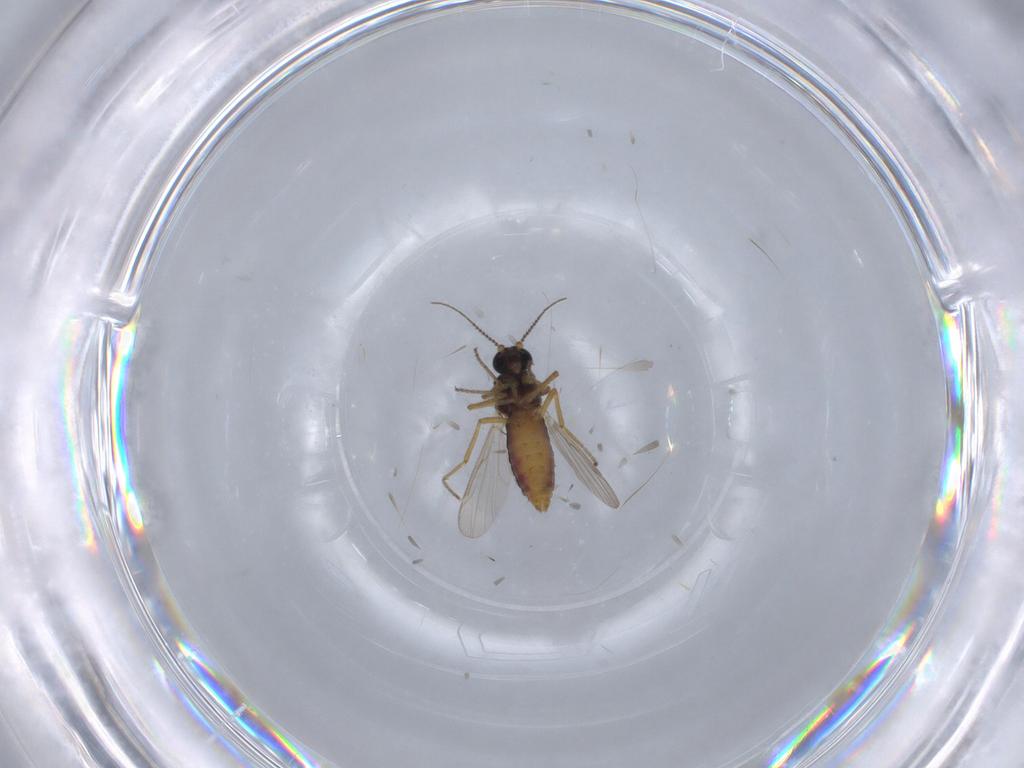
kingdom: Animalia
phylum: Arthropoda
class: Insecta
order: Diptera
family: Ceratopogonidae
